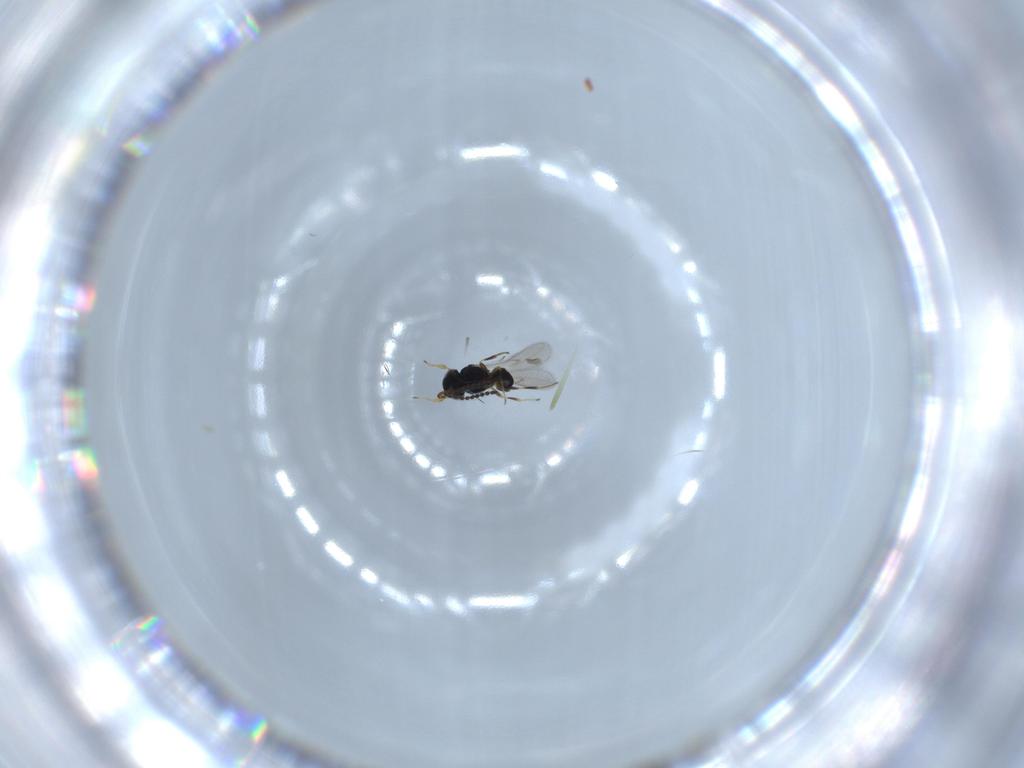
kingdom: Animalia
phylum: Arthropoda
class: Insecta
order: Hymenoptera
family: Scelionidae
